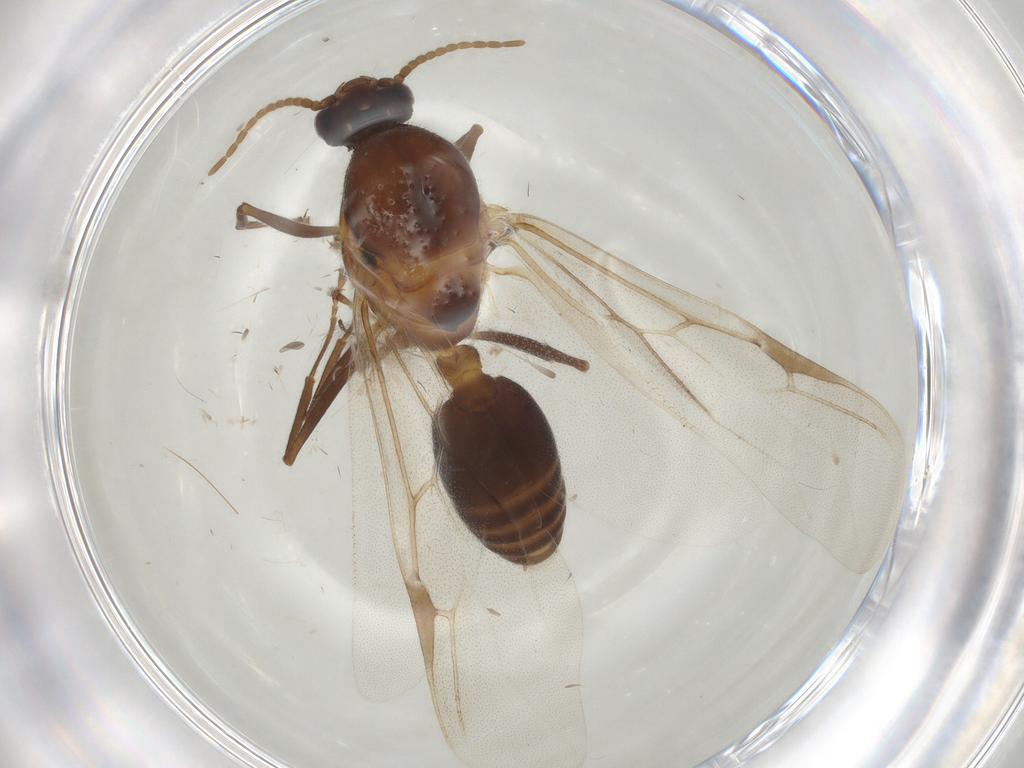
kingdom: Animalia
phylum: Arthropoda
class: Insecta
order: Hymenoptera
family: Formicidae
